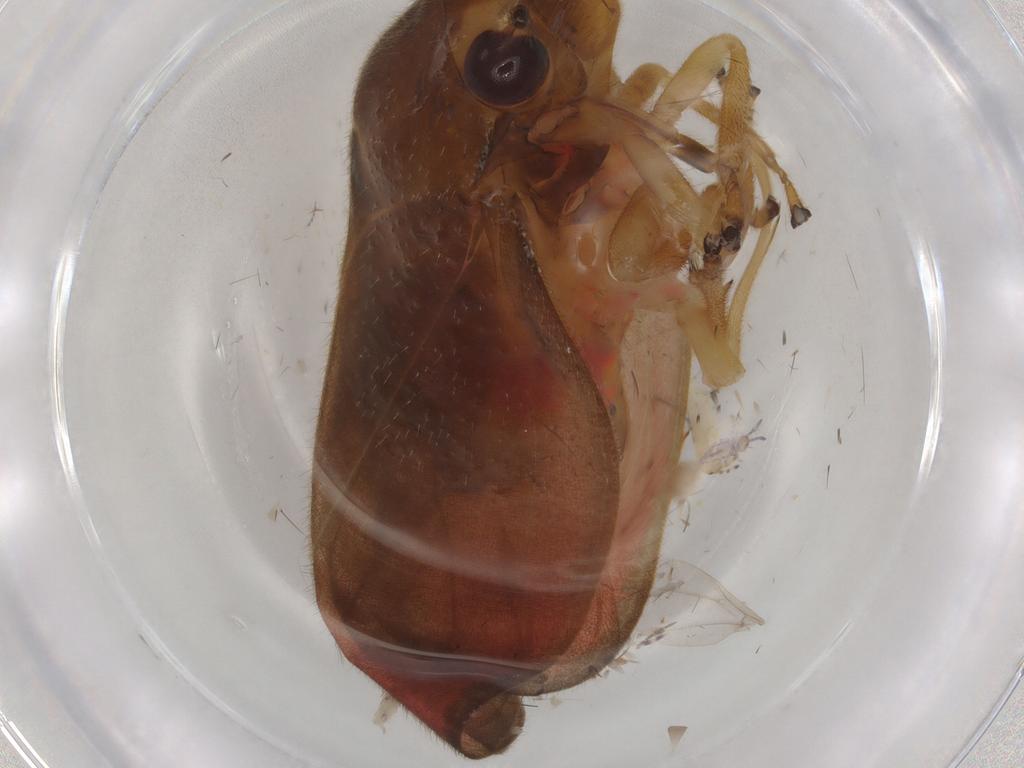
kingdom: Animalia
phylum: Arthropoda
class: Insecta
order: Hemiptera
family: Cercopidae
